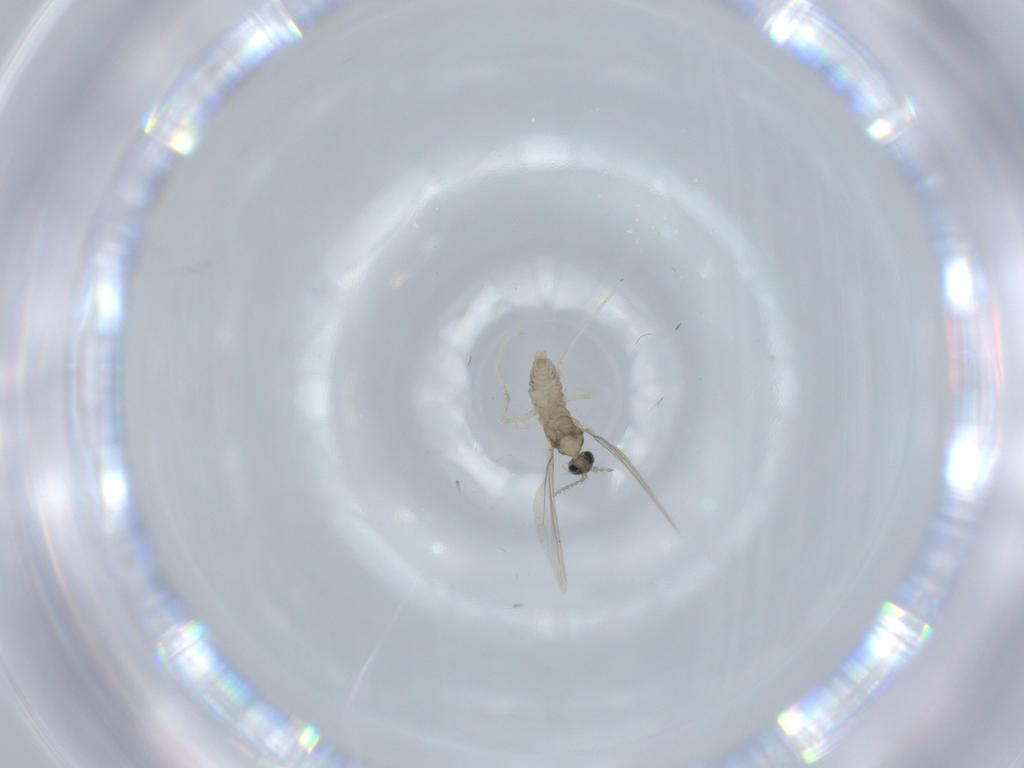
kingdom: Animalia
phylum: Arthropoda
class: Insecta
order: Diptera
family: Cecidomyiidae
